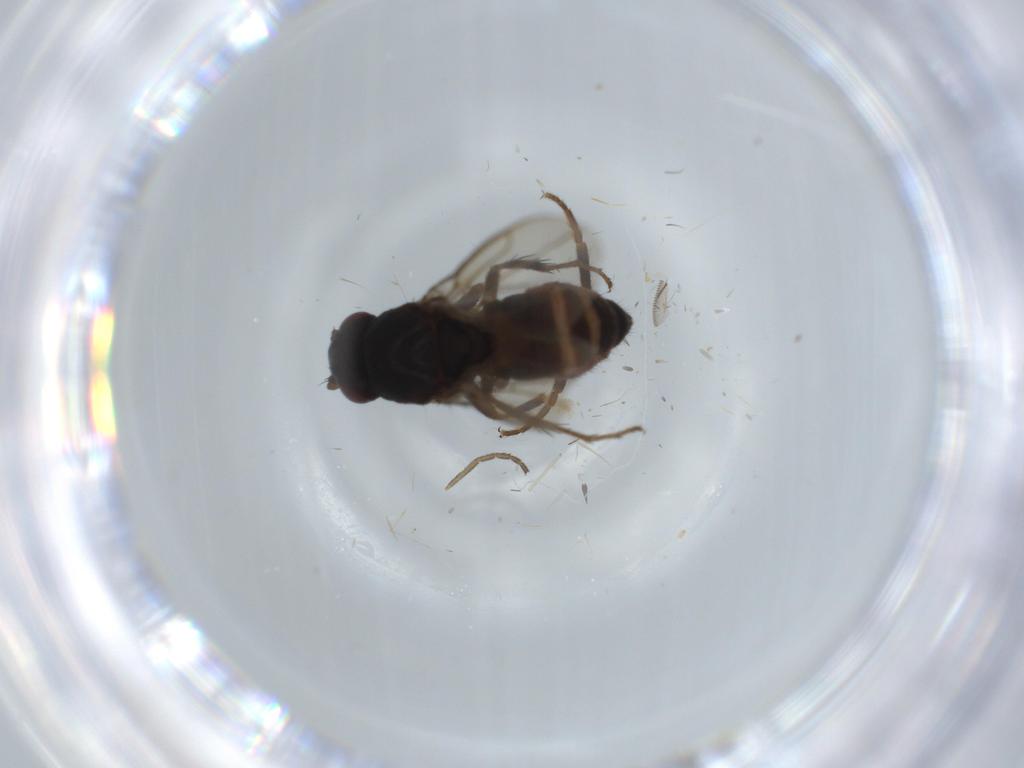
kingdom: Animalia
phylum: Arthropoda
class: Insecta
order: Diptera
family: Sphaeroceridae
